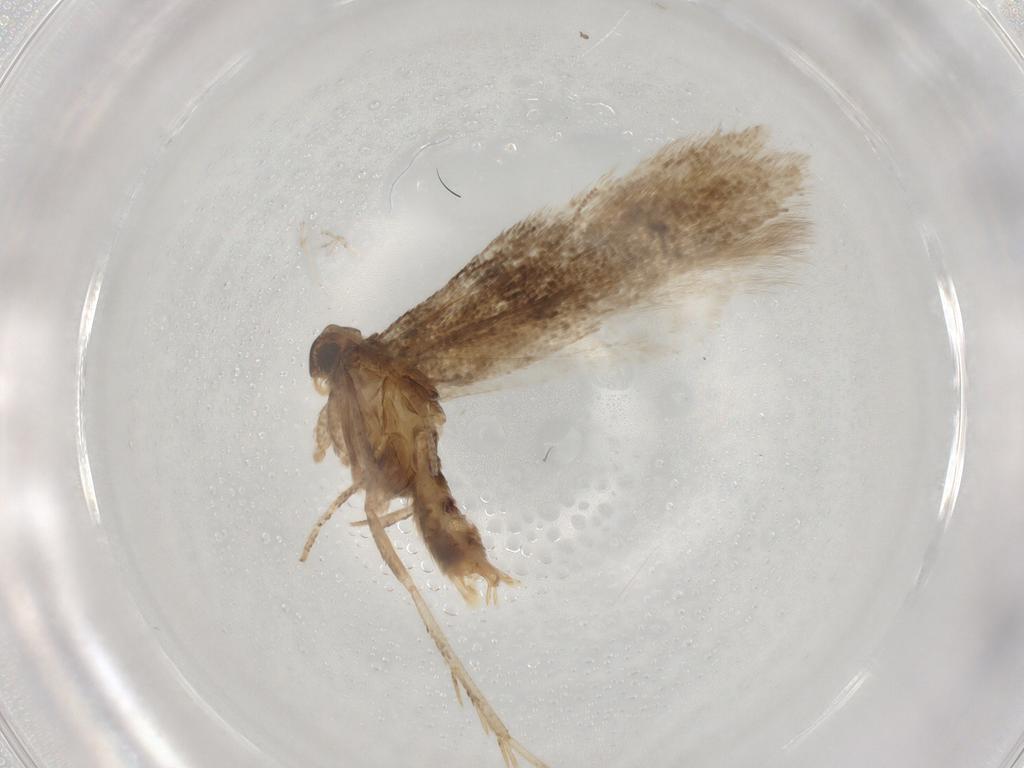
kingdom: Animalia
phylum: Arthropoda
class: Insecta
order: Lepidoptera
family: Gelechiidae
